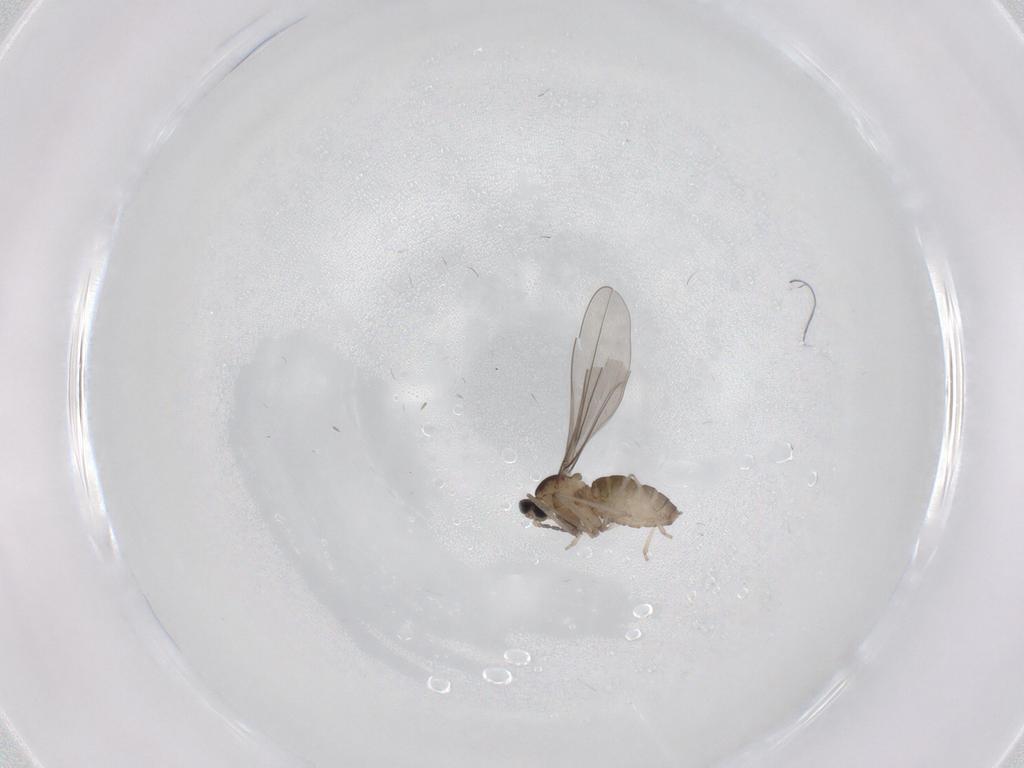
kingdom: Animalia
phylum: Arthropoda
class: Insecta
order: Diptera
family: Cecidomyiidae
